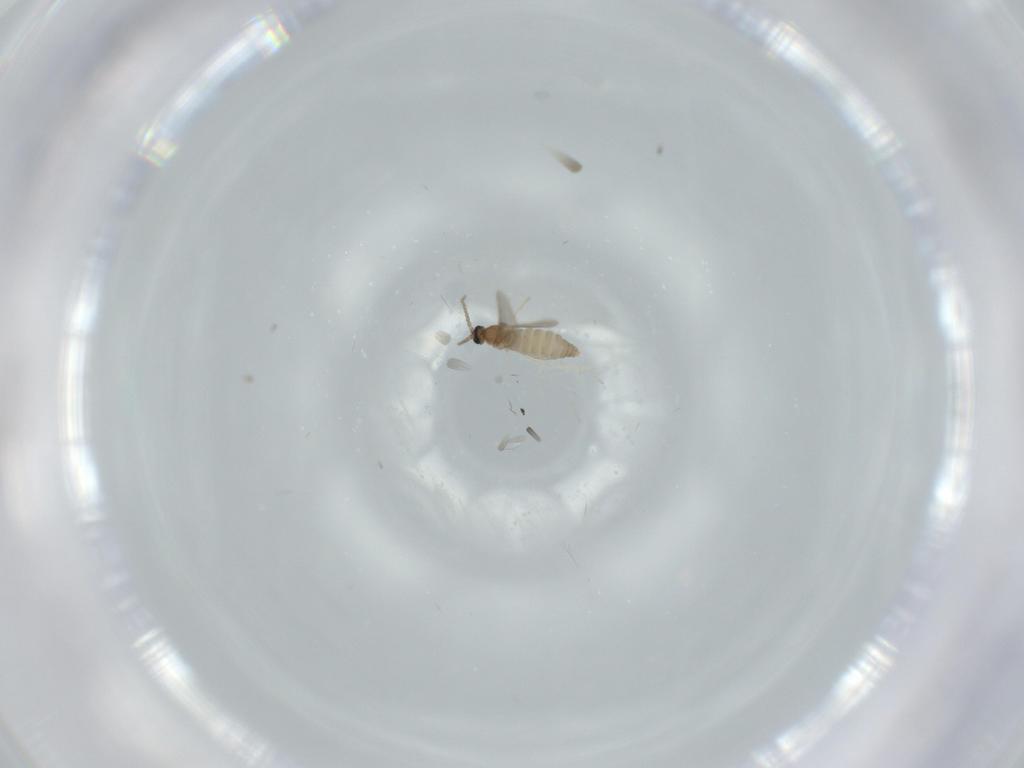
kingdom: Animalia
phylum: Arthropoda
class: Insecta
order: Diptera
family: Cecidomyiidae
